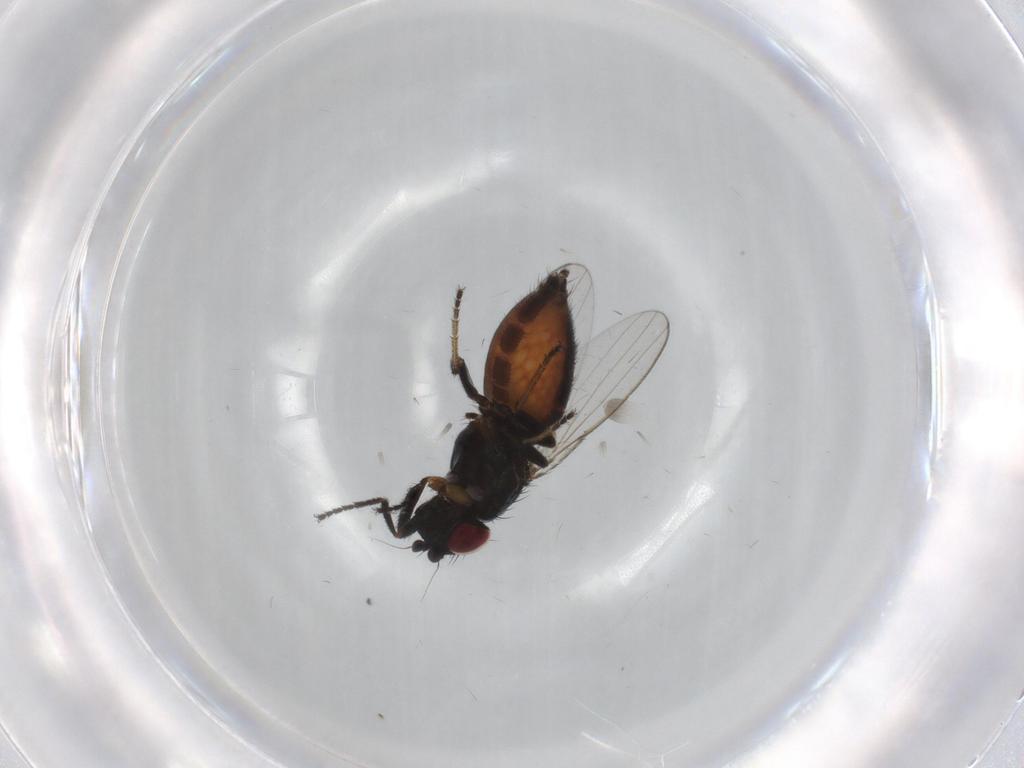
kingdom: Animalia
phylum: Arthropoda
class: Insecta
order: Diptera
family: Milichiidae
